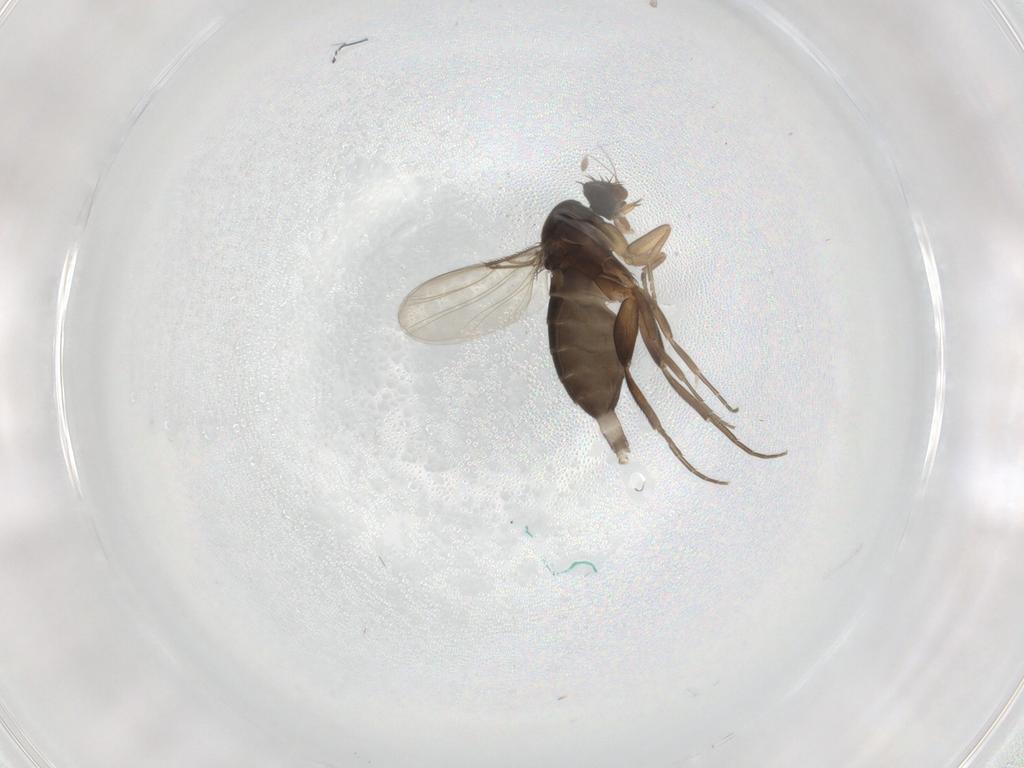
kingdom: Animalia
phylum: Arthropoda
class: Insecta
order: Diptera
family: Phoridae
